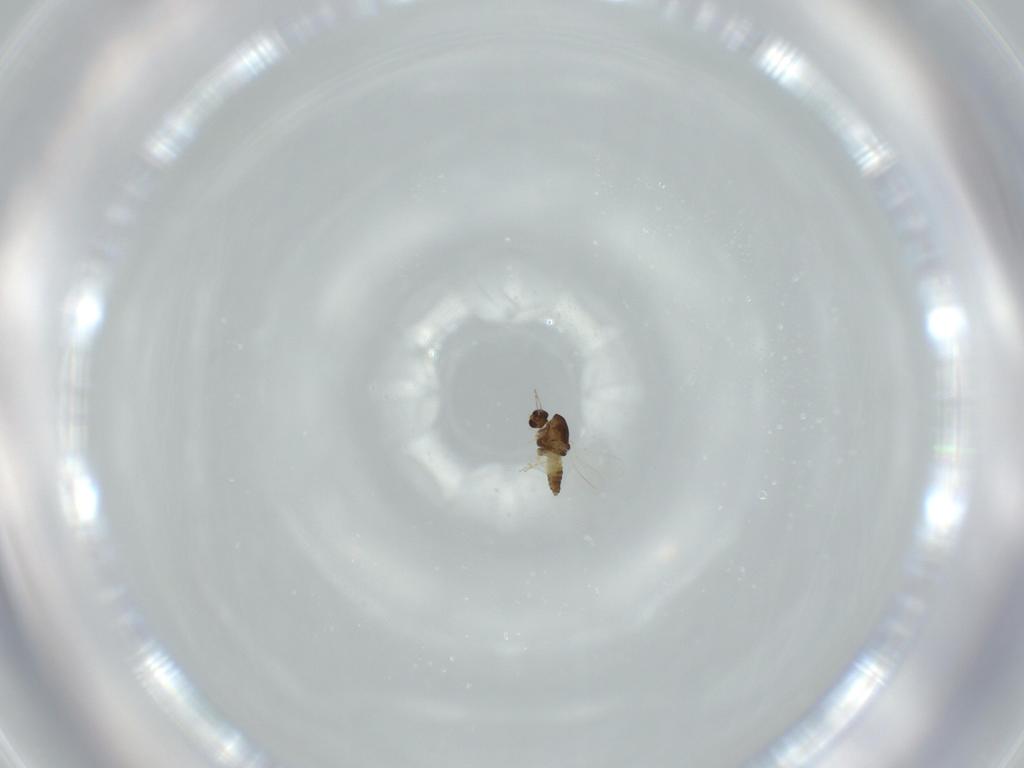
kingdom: Animalia
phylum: Arthropoda
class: Insecta
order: Diptera
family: Chironomidae
